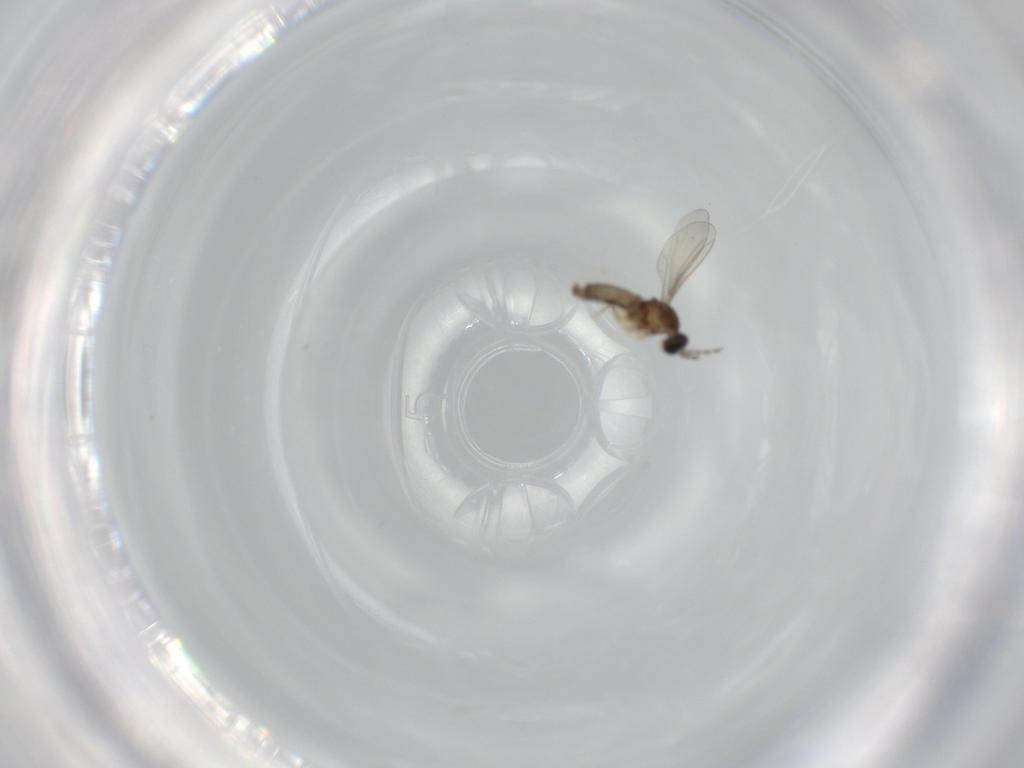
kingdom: Animalia
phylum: Arthropoda
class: Insecta
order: Diptera
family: Cecidomyiidae
